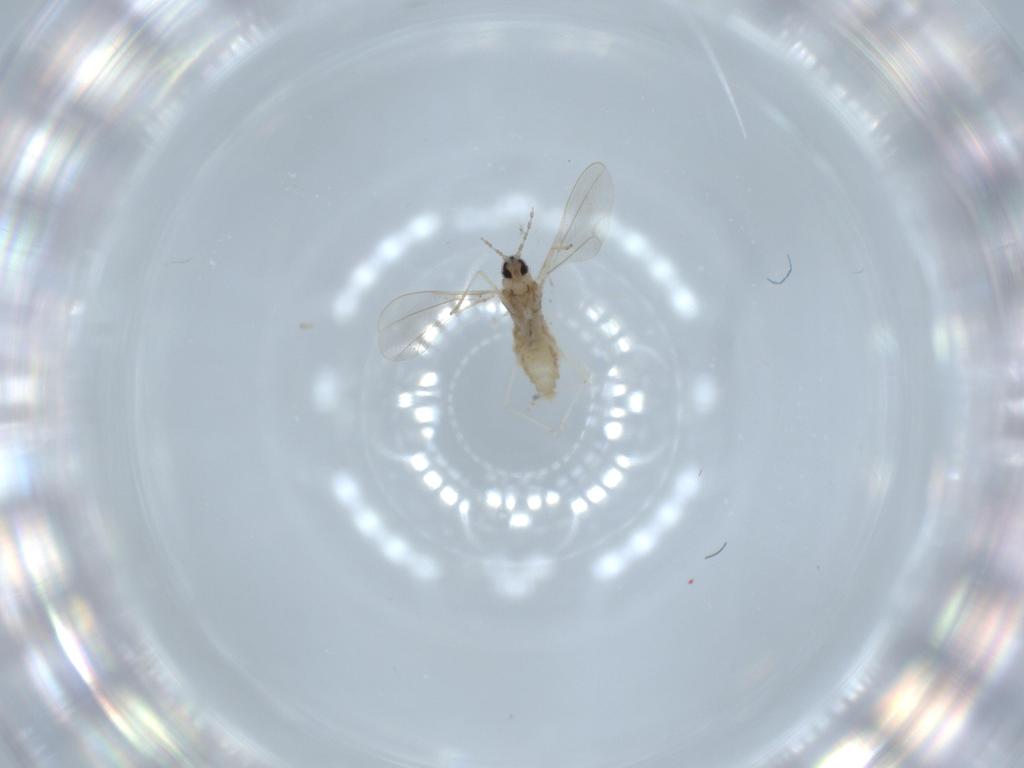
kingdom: Animalia
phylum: Arthropoda
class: Insecta
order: Diptera
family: Cecidomyiidae
